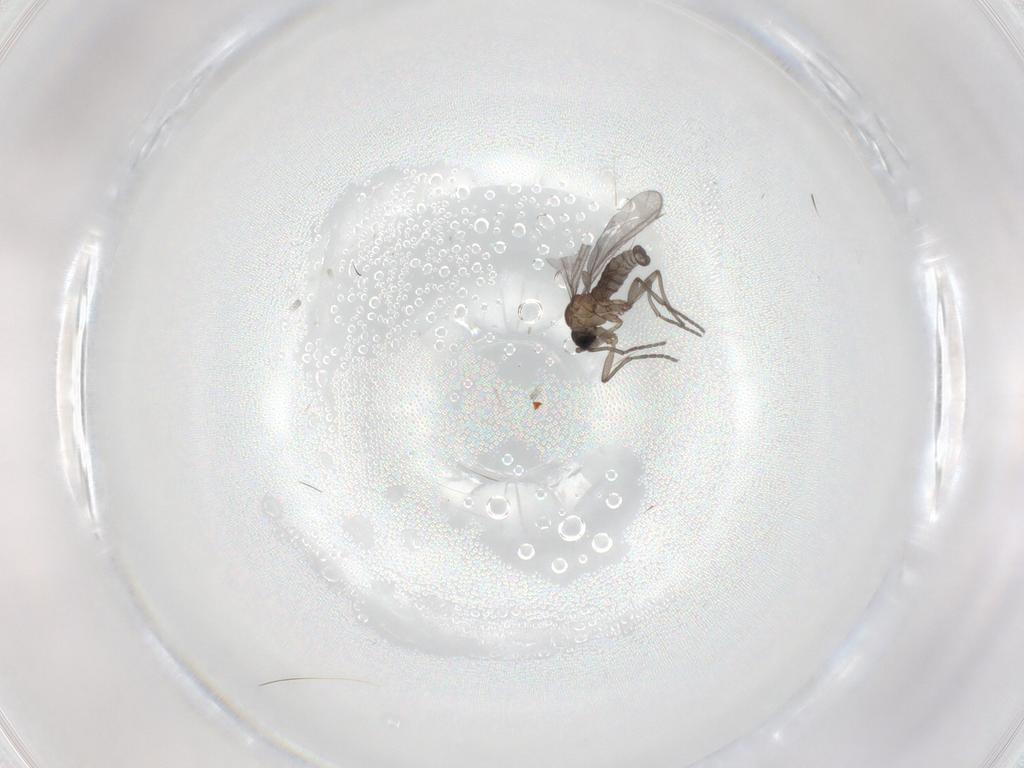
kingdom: Animalia
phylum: Arthropoda
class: Insecta
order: Diptera
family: Sciaridae
